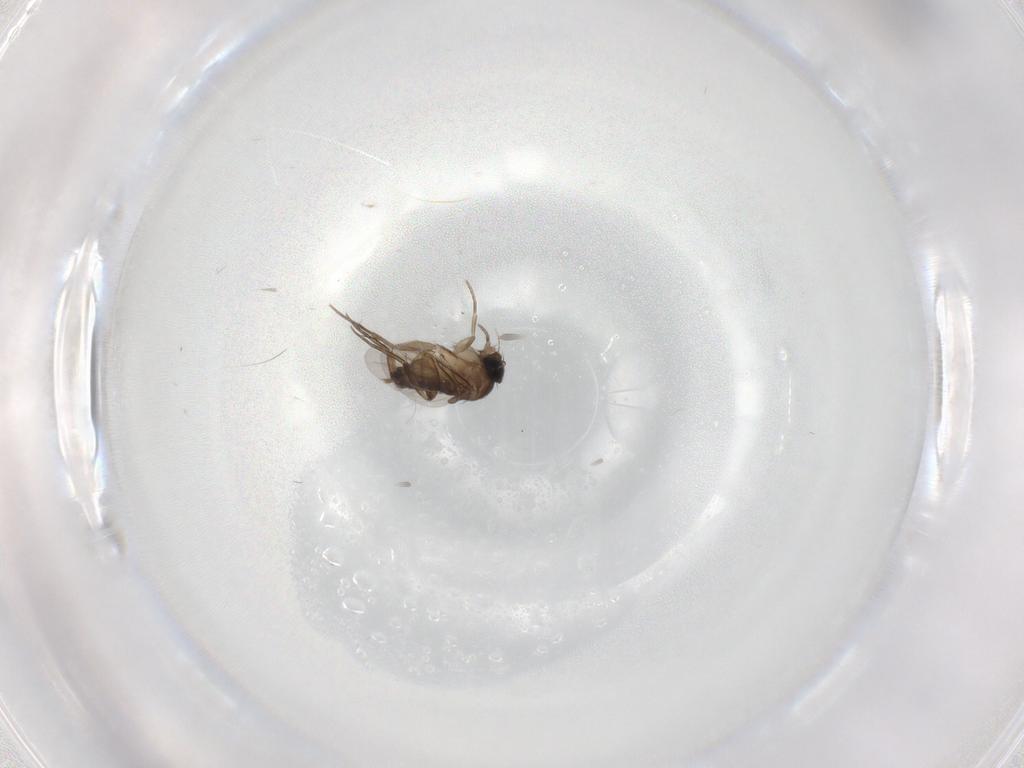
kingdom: Animalia
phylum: Arthropoda
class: Insecta
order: Diptera
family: Phoridae
